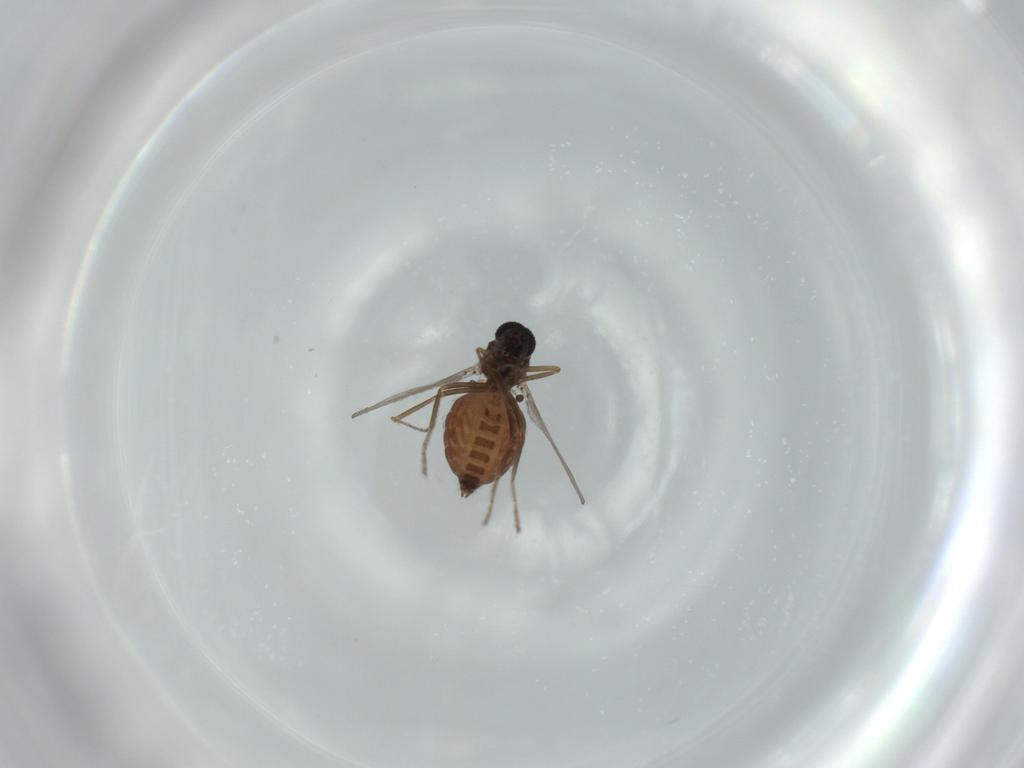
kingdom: Animalia
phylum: Arthropoda
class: Insecta
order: Diptera
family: Ceratopogonidae
